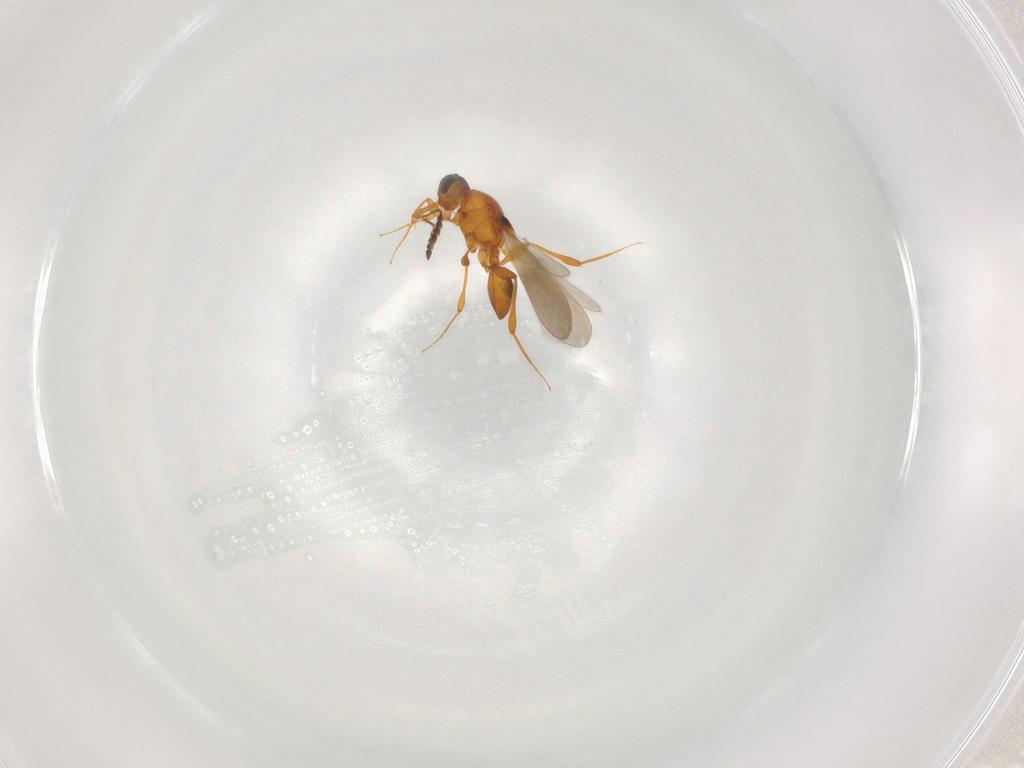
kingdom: Animalia
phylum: Arthropoda
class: Insecta
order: Hymenoptera
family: Platygastridae
